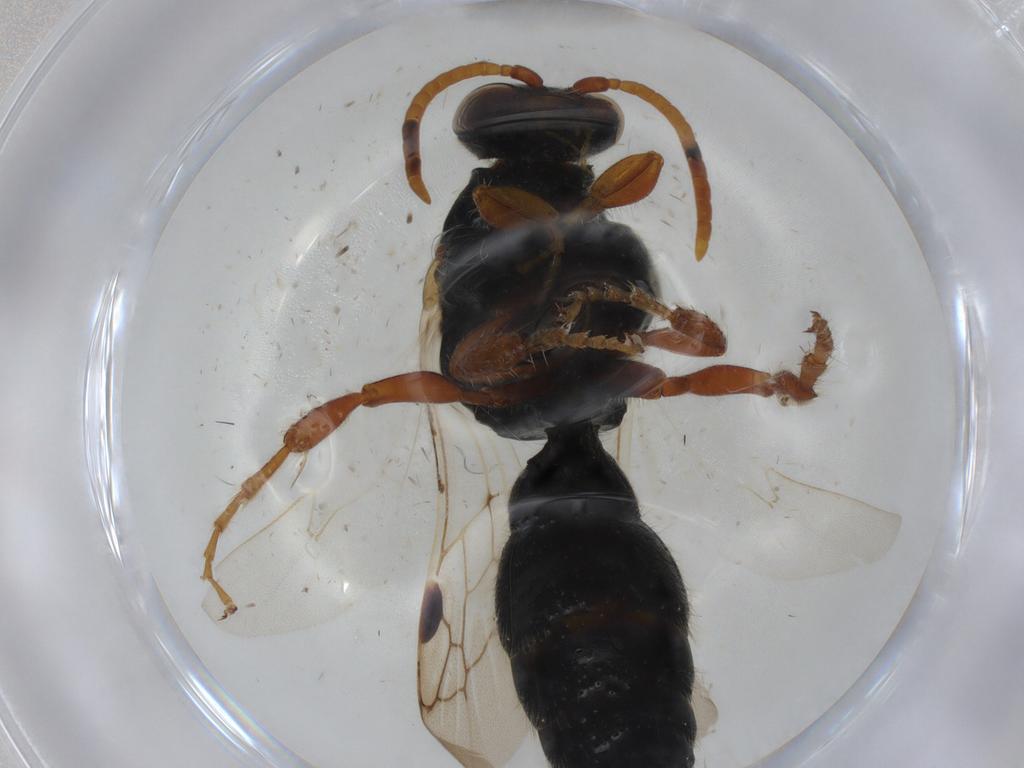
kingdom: Animalia
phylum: Arthropoda
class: Insecta
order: Hymenoptera
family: Tiphiidae
